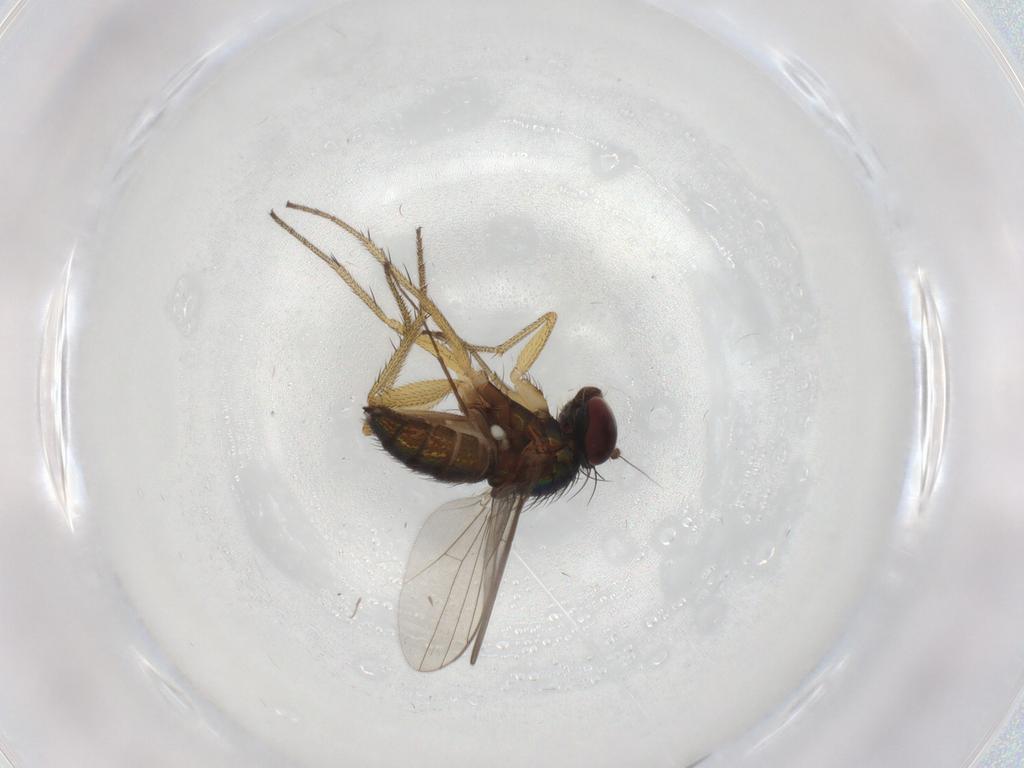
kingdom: Animalia
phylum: Arthropoda
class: Insecta
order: Diptera
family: Dolichopodidae
